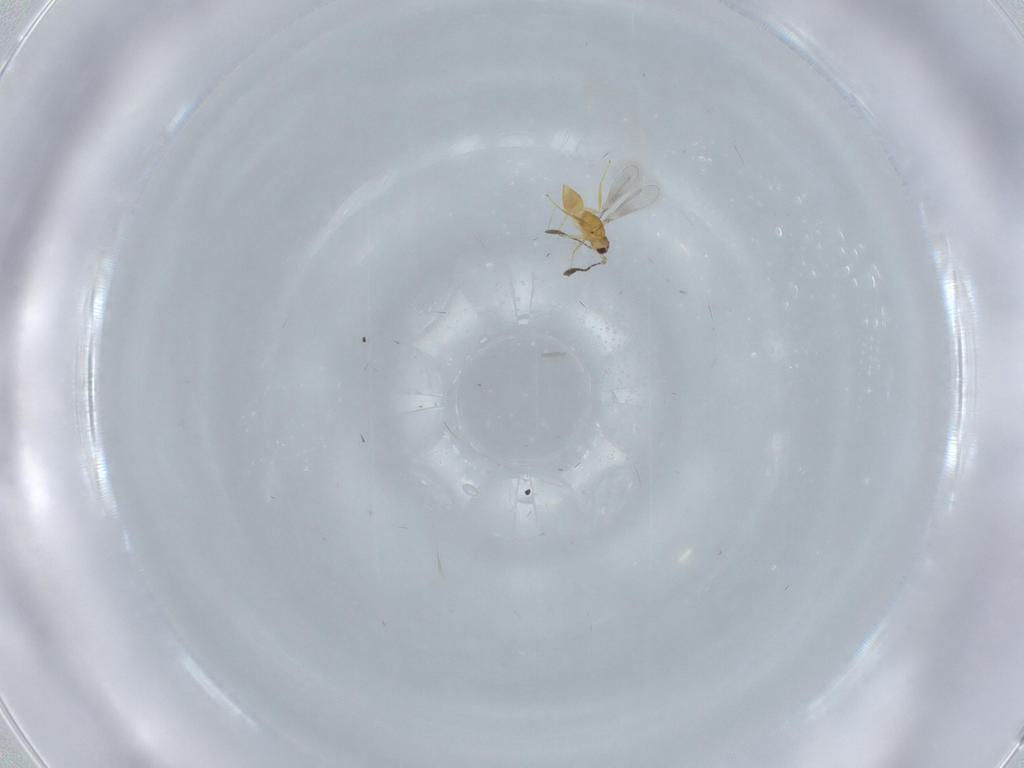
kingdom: Animalia
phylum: Arthropoda
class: Insecta
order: Hymenoptera
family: Mymaridae
